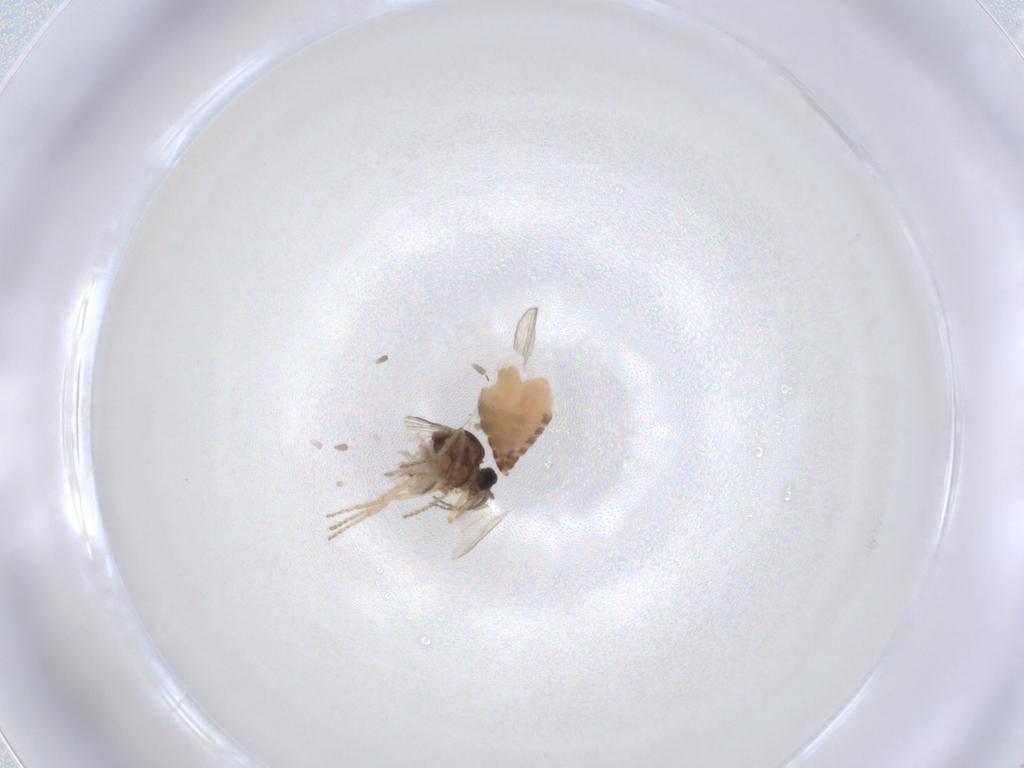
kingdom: Animalia
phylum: Arthropoda
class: Insecta
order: Diptera
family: Ceratopogonidae
